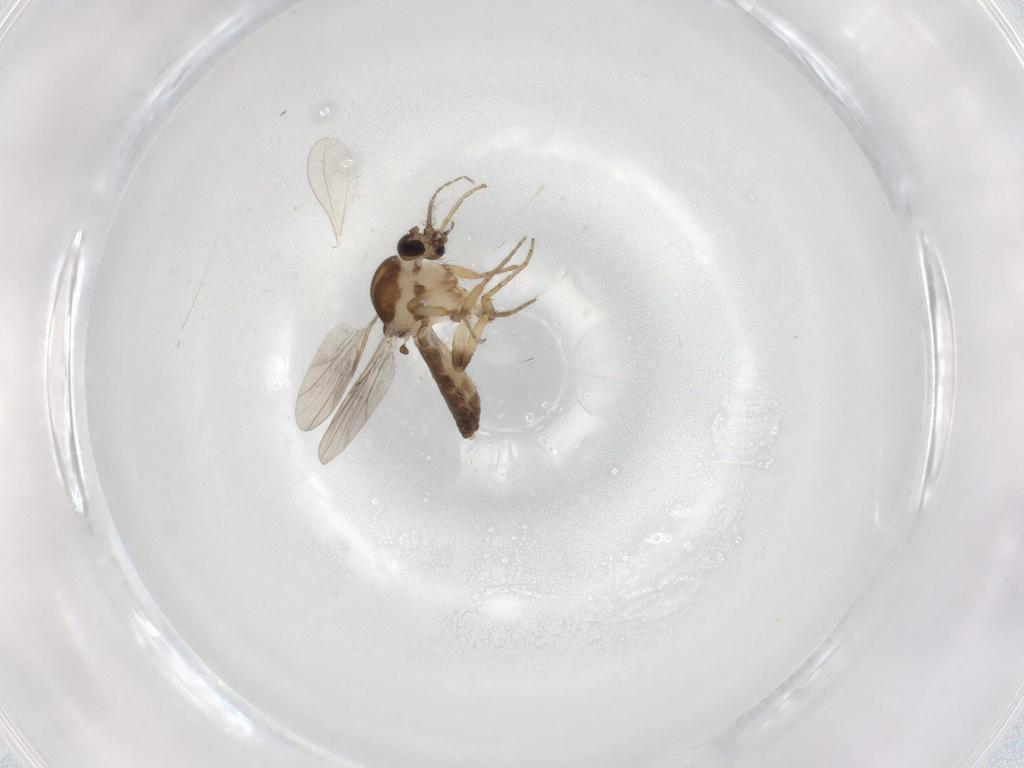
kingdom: Animalia
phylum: Arthropoda
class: Insecta
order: Diptera
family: Ceratopogonidae
